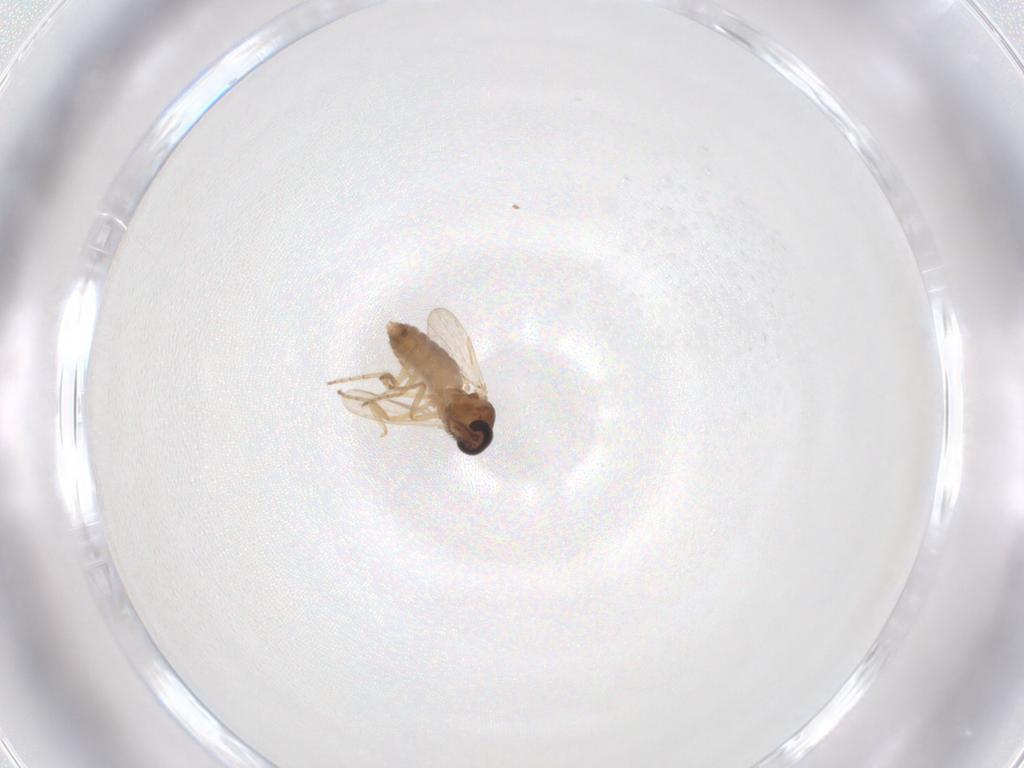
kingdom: Animalia
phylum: Arthropoda
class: Insecta
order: Diptera
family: Ceratopogonidae
